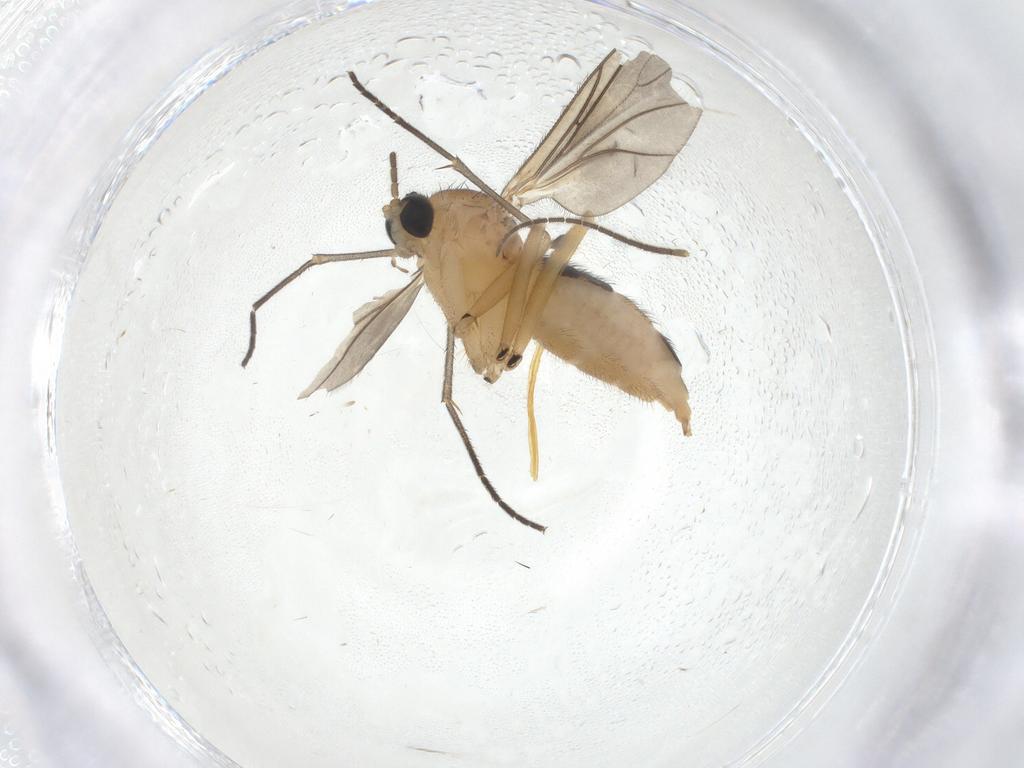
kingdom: Animalia
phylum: Arthropoda
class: Insecta
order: Diptera
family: Sciaridae
